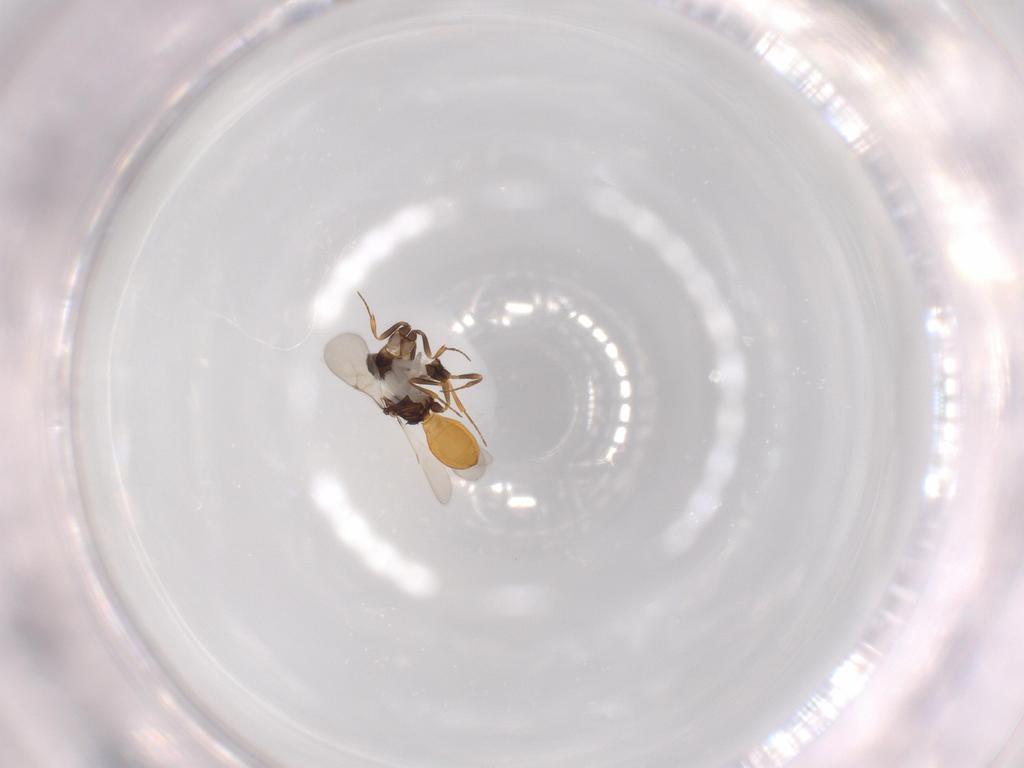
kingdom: Animalia
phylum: Arthropoda
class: Insecta
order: Hymenoptera
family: Scelionidae
